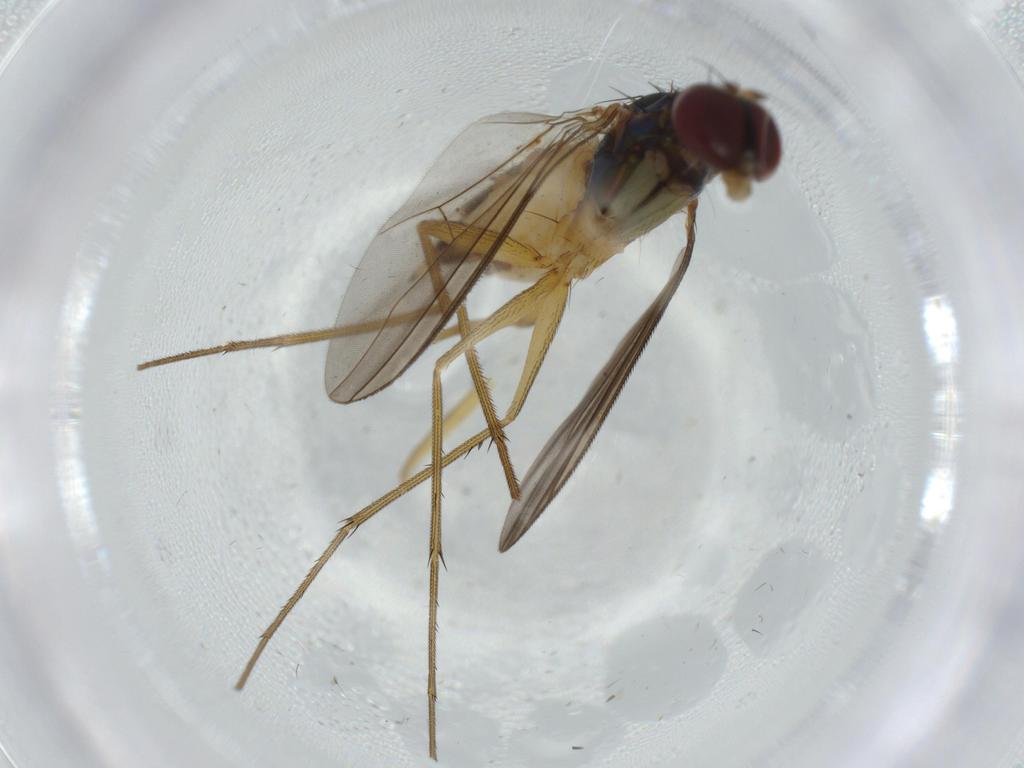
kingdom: Animalia
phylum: Arthropoda
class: Insecta
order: Diptera
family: Dolichopodidae
